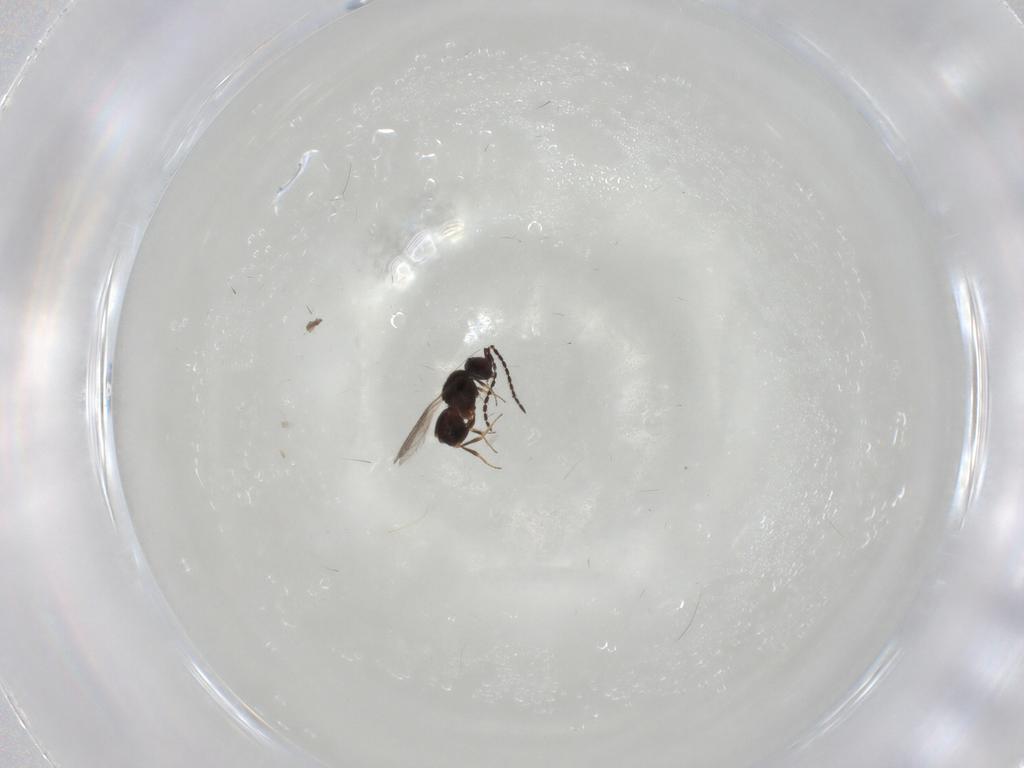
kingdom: Animalia
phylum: Arthropoda
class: Insecta
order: Hymenoptera
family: Ceraphronidae
